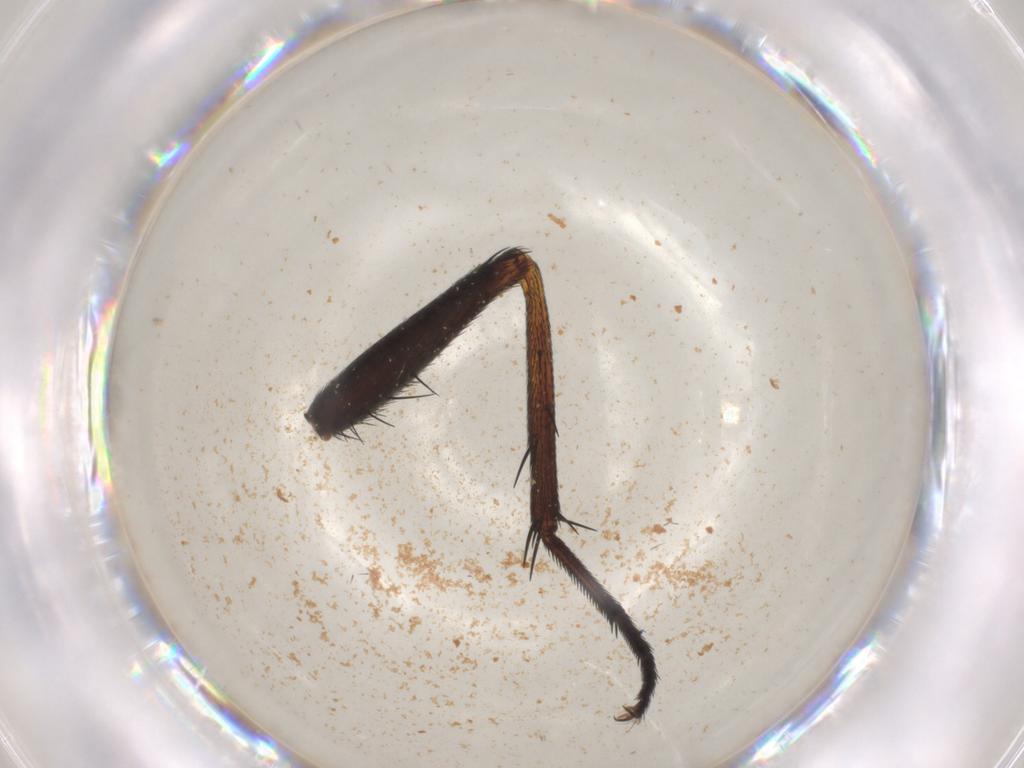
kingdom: Animalia
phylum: Arthropoda
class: Insecta
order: Diptera
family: Calliphoridae
